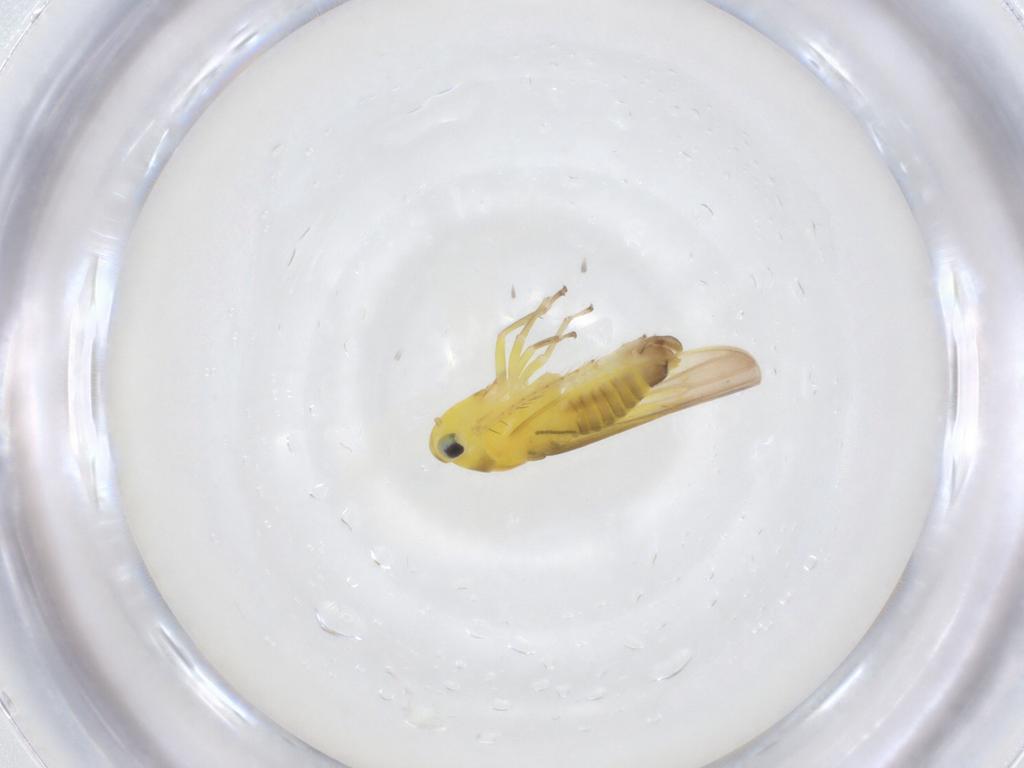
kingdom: Animalia
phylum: Arthropoda
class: Insecta
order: Hemiptera
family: Cicadellidae
